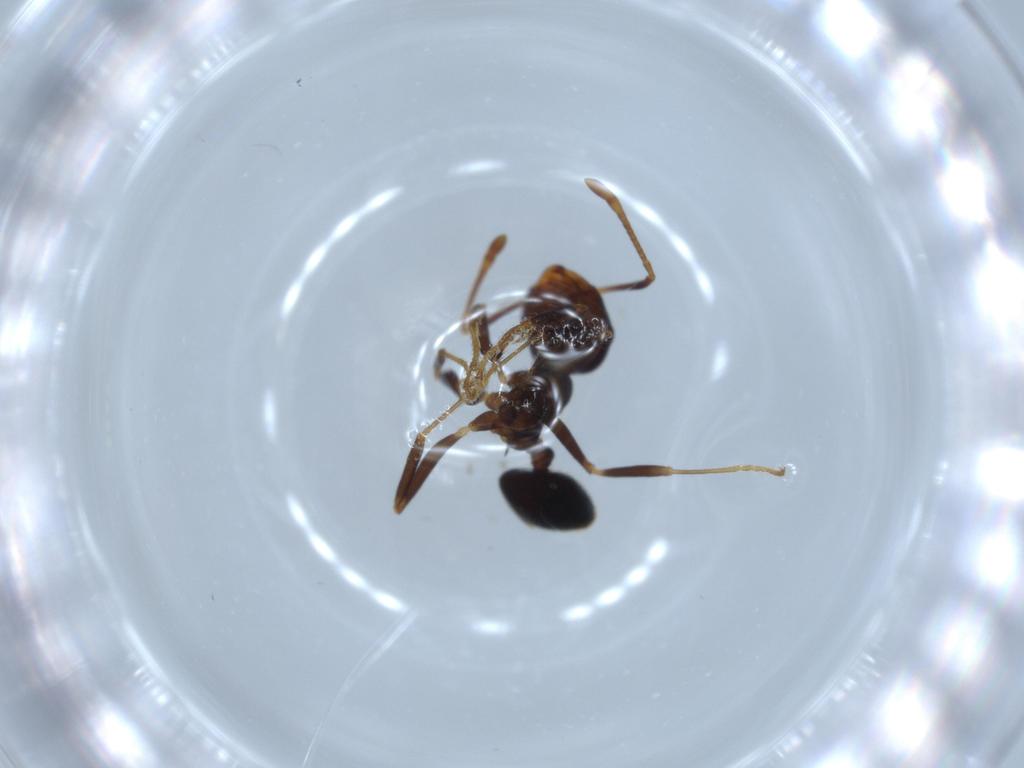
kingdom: Animalia
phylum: Arthropoda
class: Insecta
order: Hymenoptera
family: Formicidae
